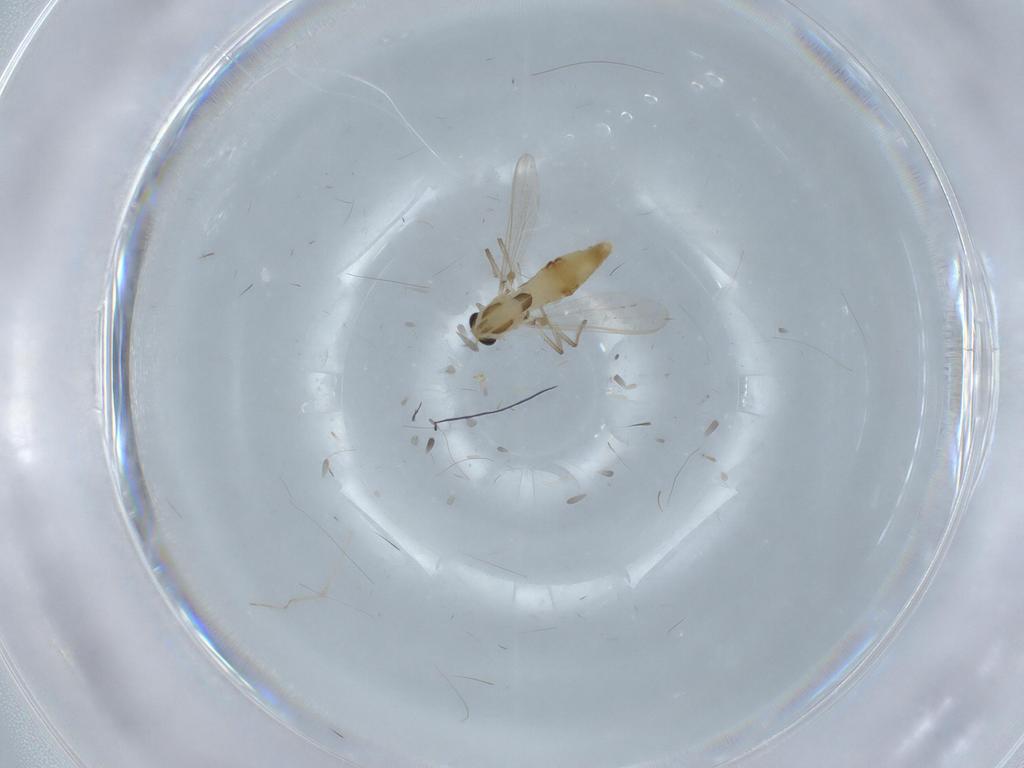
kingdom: Animalia
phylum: Arthropoda
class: Insecta
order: Diptera
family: Chironomidae
